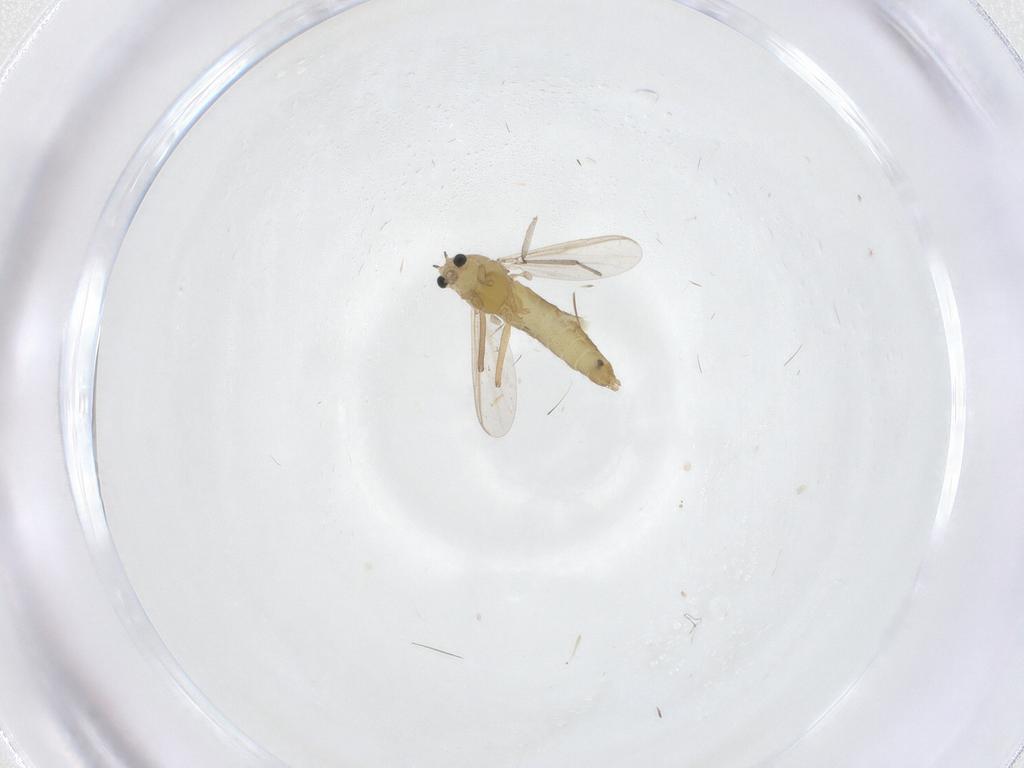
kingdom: Animalia
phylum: Arthropoda
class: Insecta
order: Diptera
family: Chironomidae
